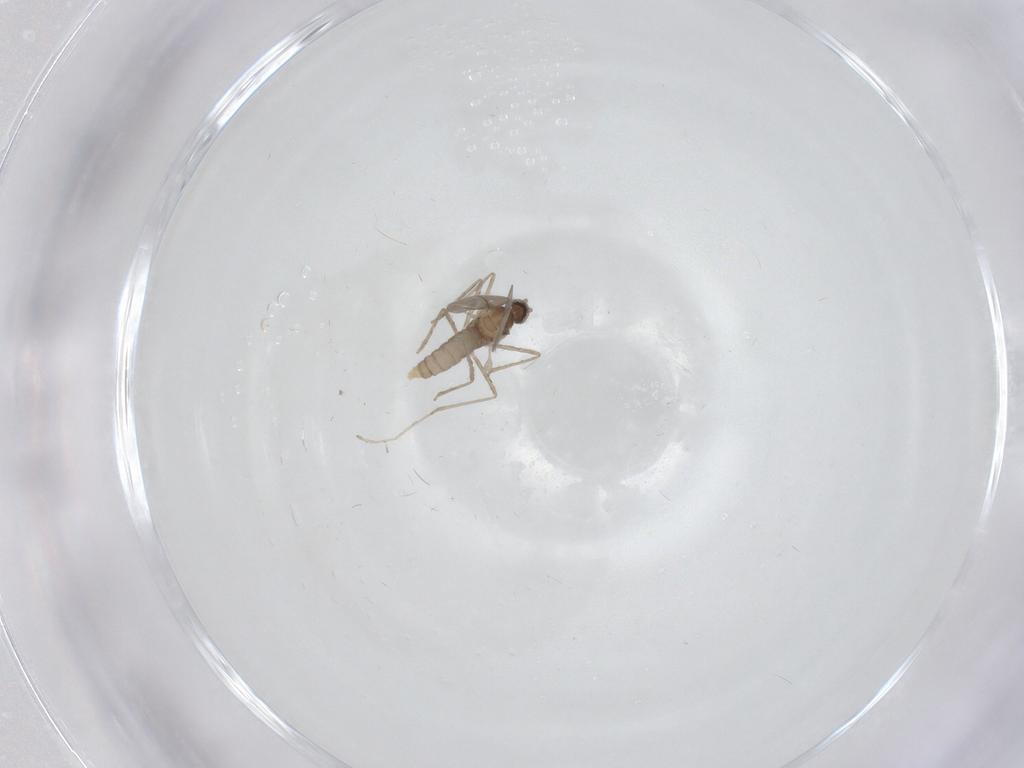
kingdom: Animalia
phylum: Arthropoda
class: Insecta
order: Diptera
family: Cecidomyiidae
